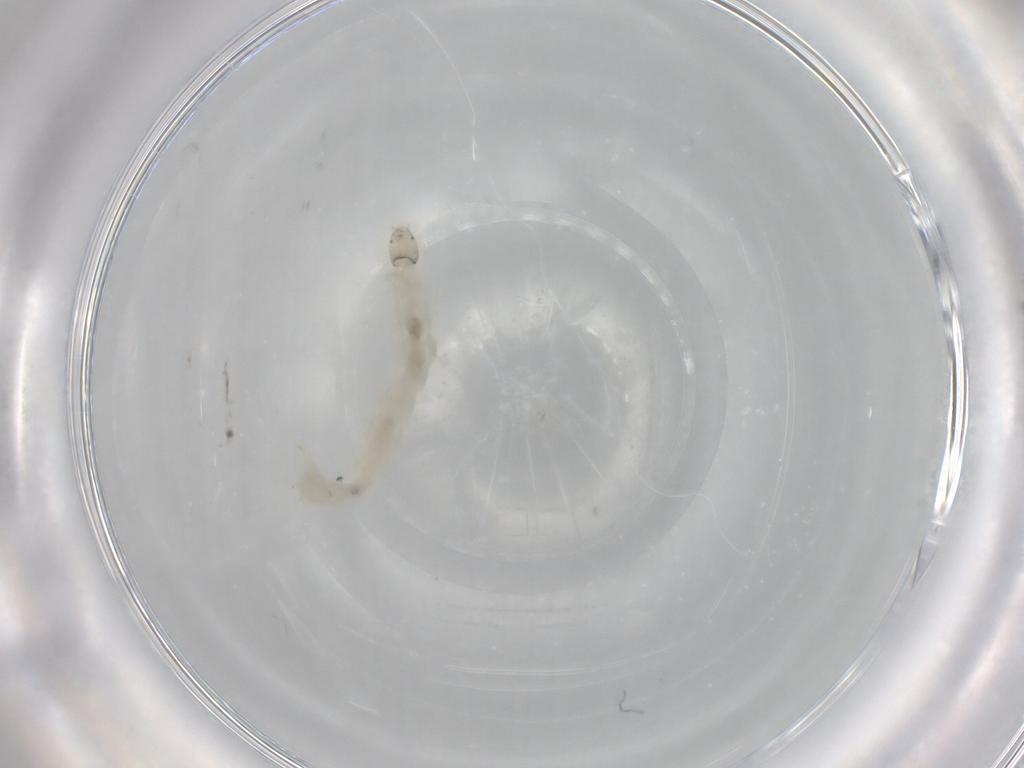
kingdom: Animalia
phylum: Arthropoda
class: Insecta
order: Diptera
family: Chironomidae
